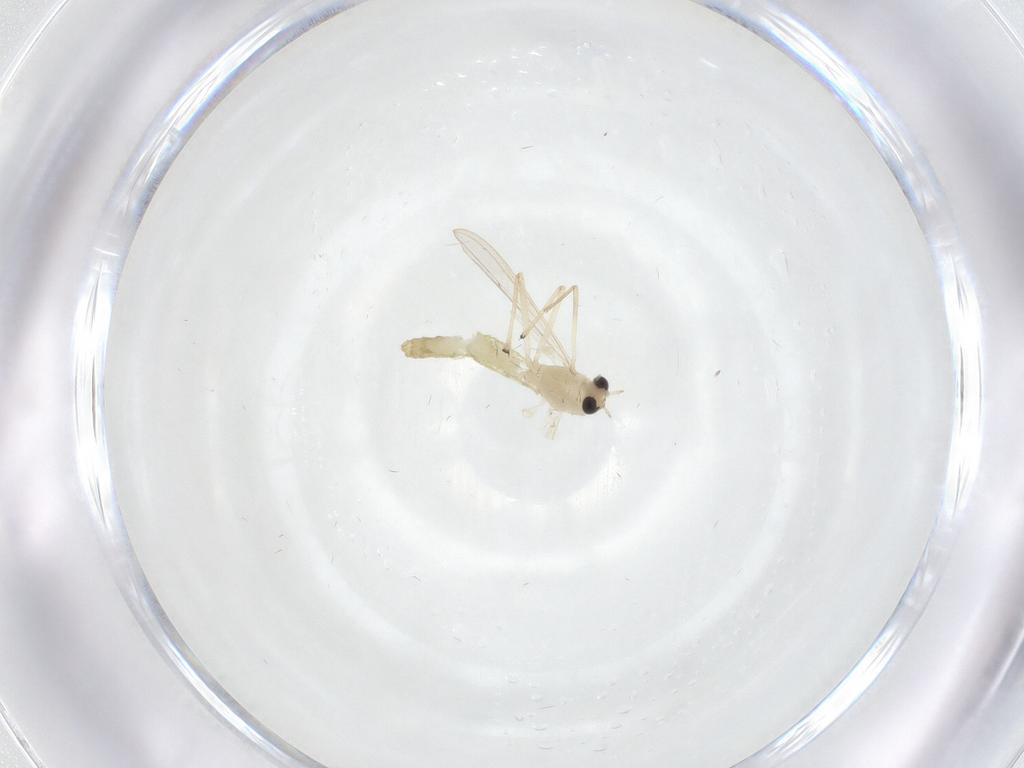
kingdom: Animalia
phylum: Arthropoda
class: Insecta
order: Diptera
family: Chironomidae
